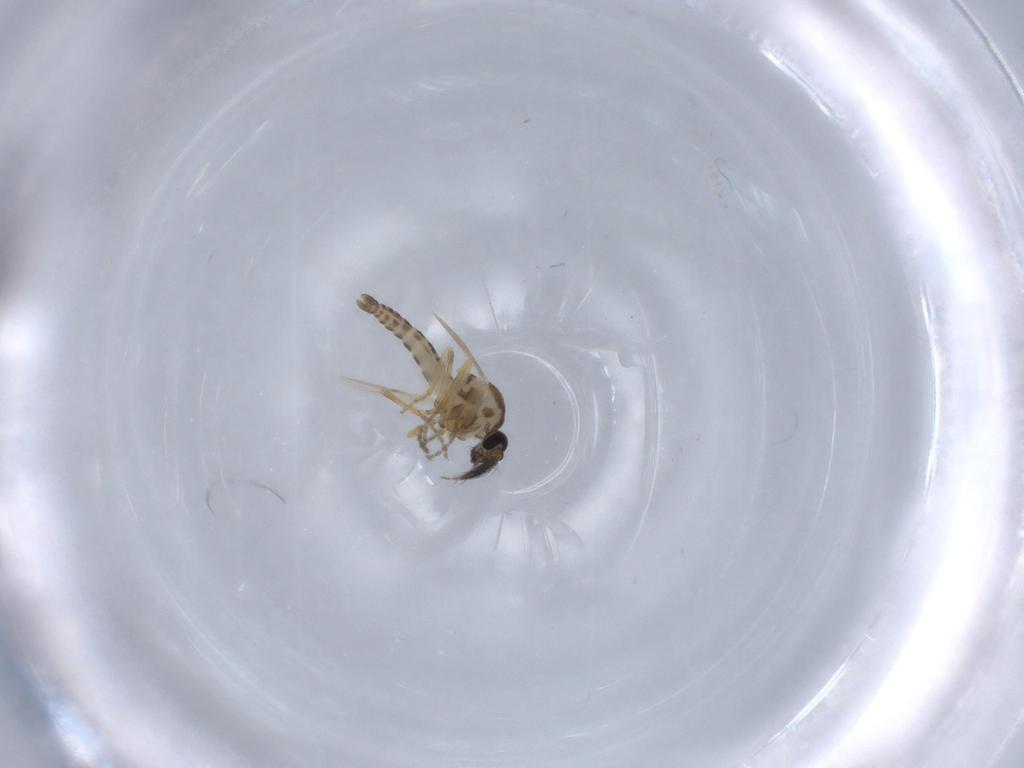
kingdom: Animalia
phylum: Arthropoda
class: Insecta
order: Diptera
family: Ceratopogonidae
